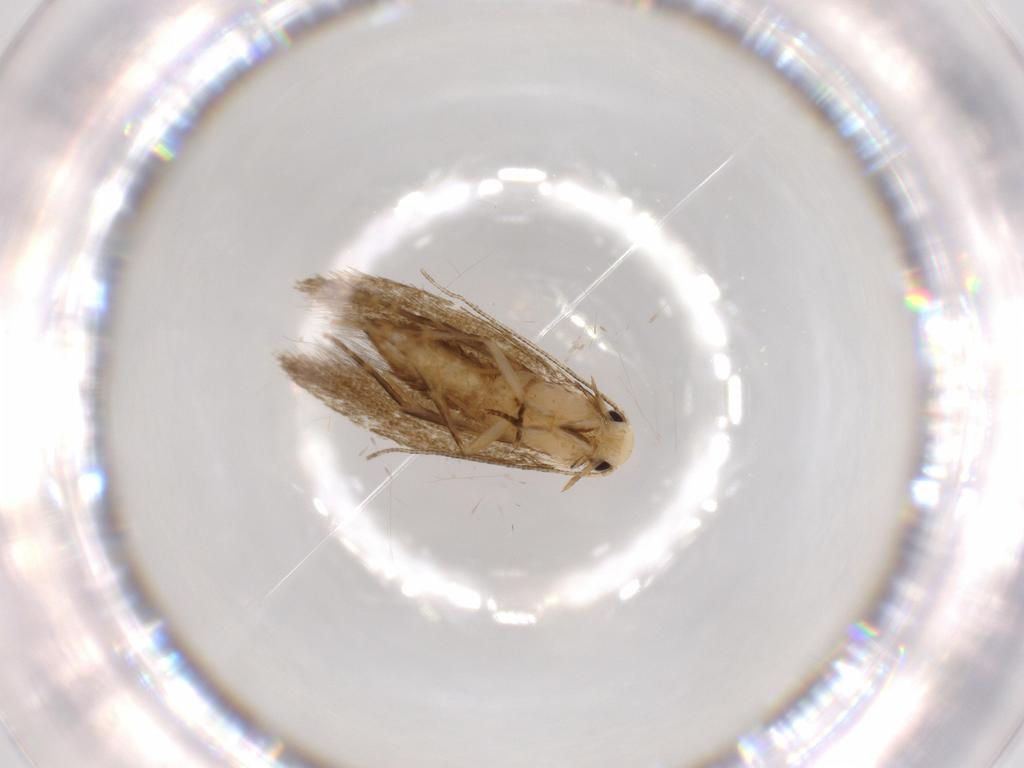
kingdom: Animalia
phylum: Arthropoda
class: Insecta
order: Lepidoptera
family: Tineidae
